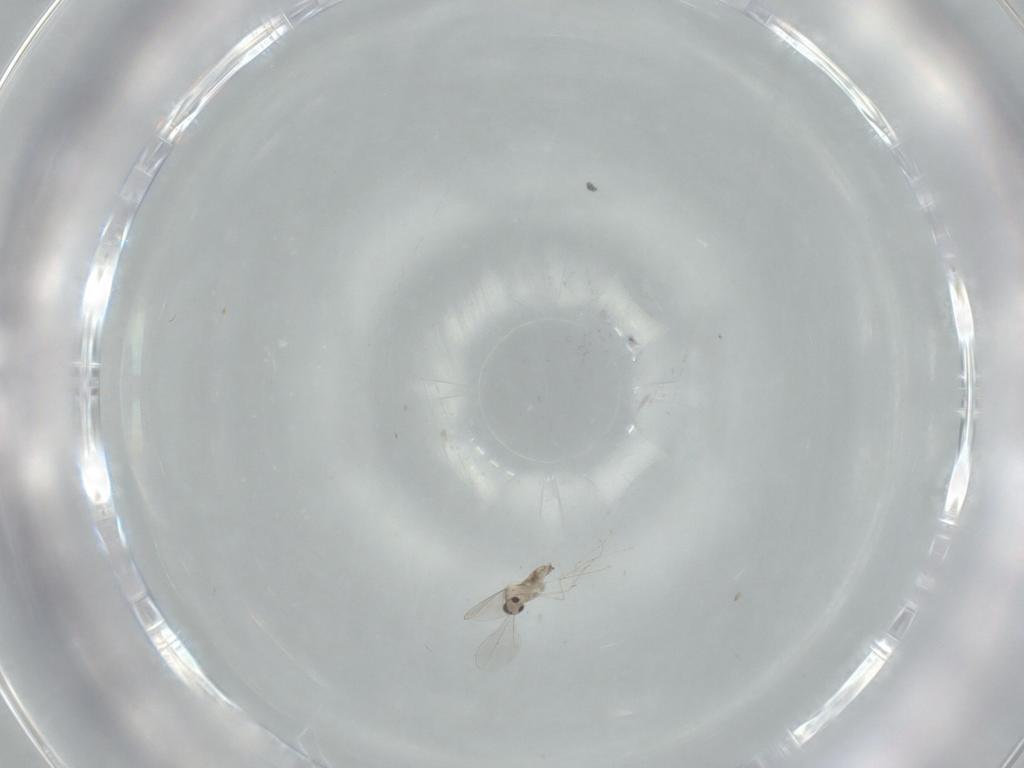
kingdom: Animalia
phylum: Arthropoda
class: Insecta
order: Diptera
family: Cecidomyiidae
